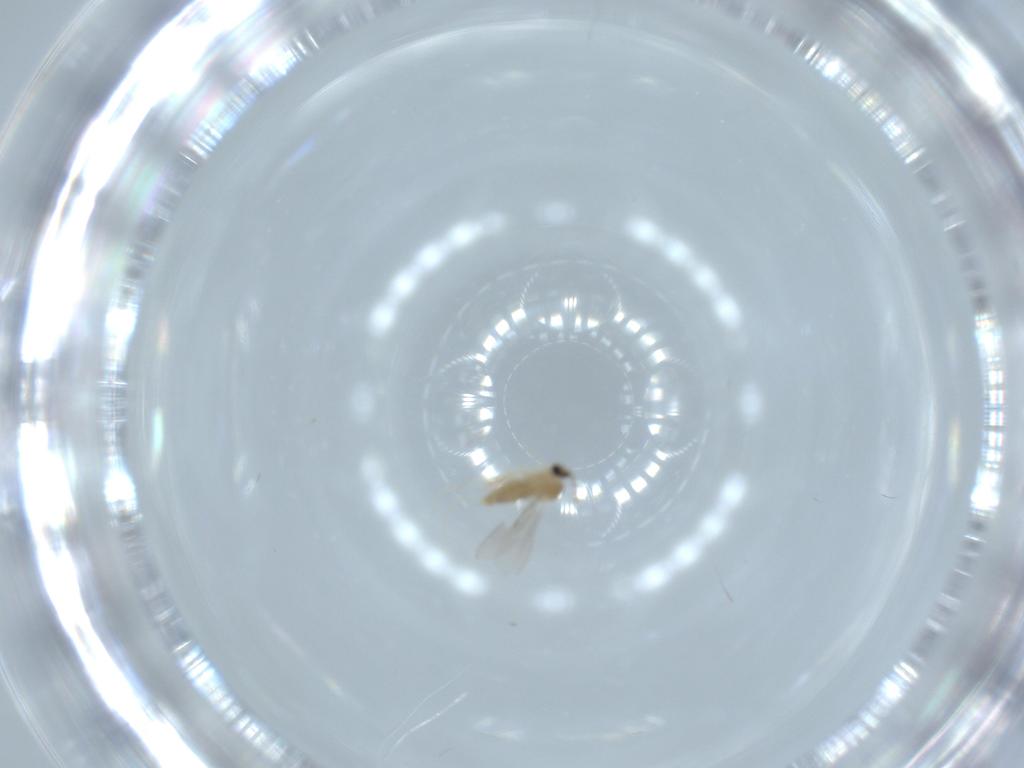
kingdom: Animalia
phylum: Arthropoda
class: Insecta
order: Diptera
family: Cecidomyiidae
